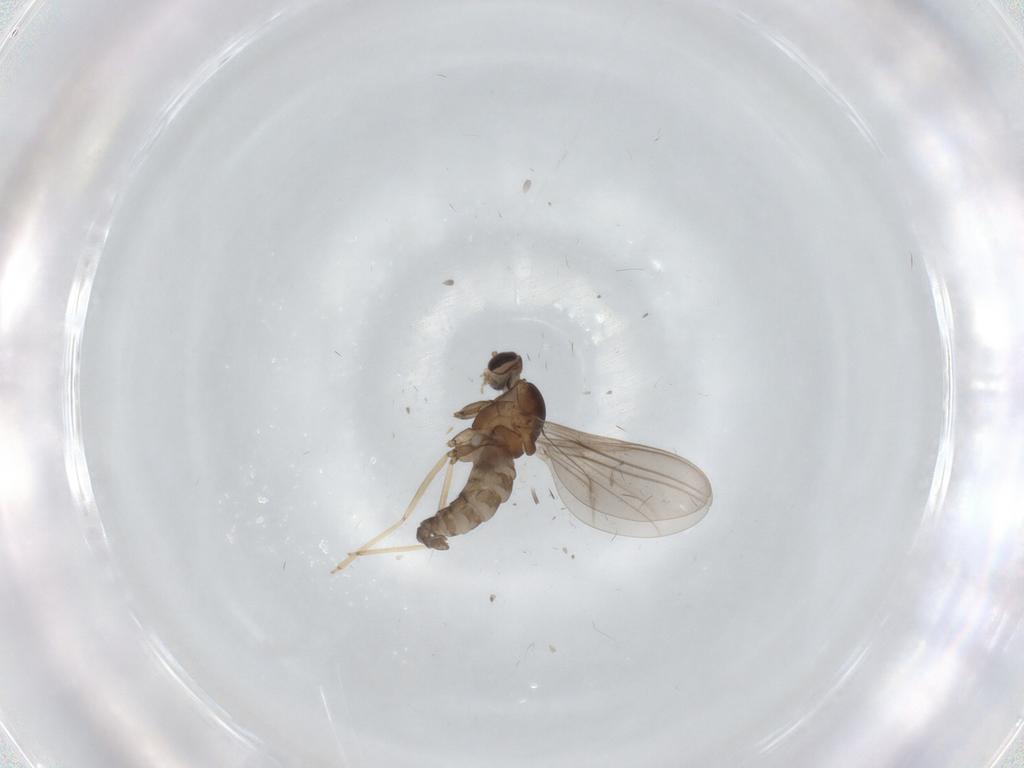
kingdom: Animalia
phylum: Arthropoda
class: Insecta
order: Diptera
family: Cecidomyiidae
